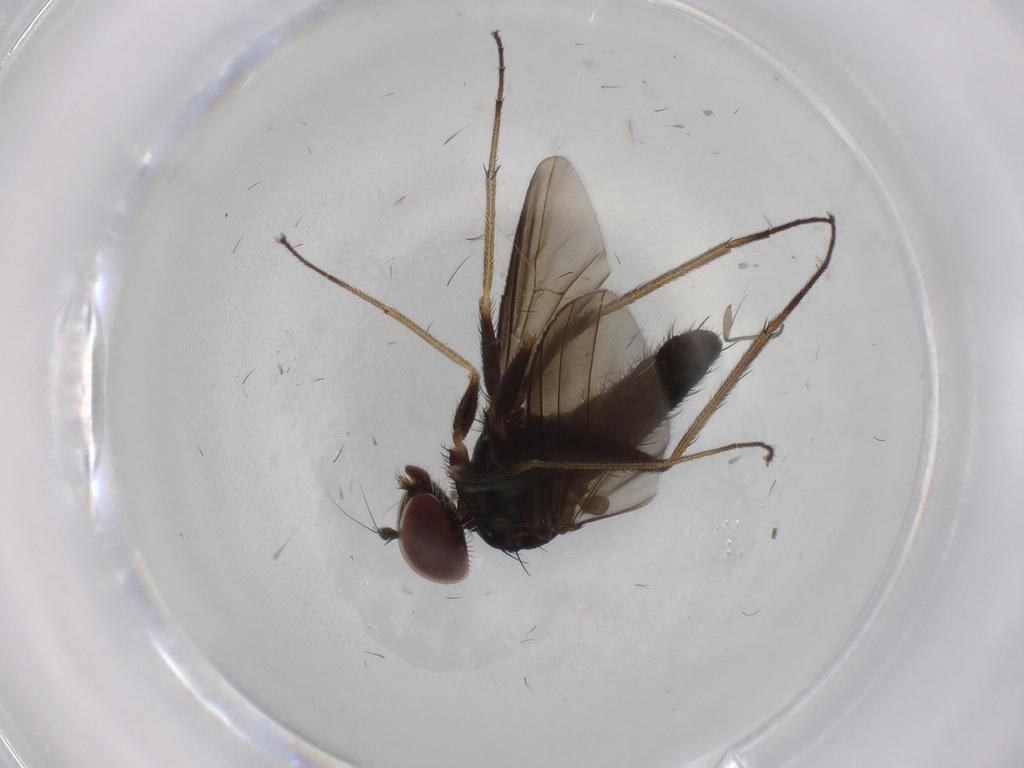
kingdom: Animalia
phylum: Arthropoda
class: Insecta
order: Diptera
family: Dolichopodidae
